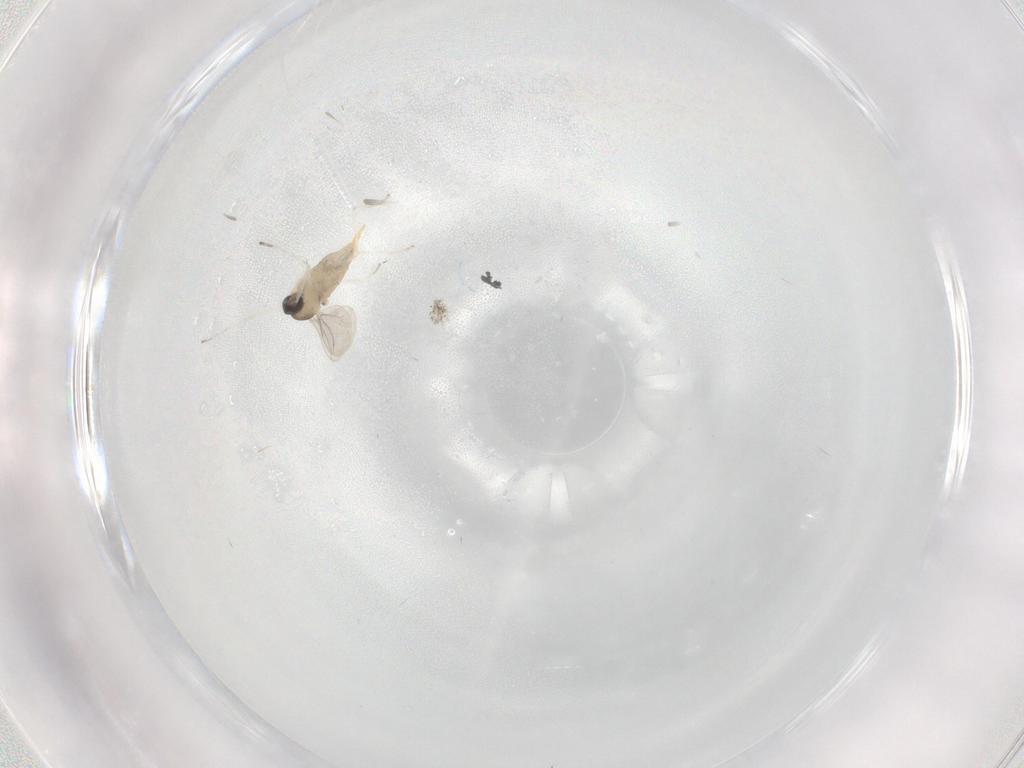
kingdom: Animalia
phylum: Arthropoda
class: Insecta
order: Diptera
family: Cecidomyiidae
